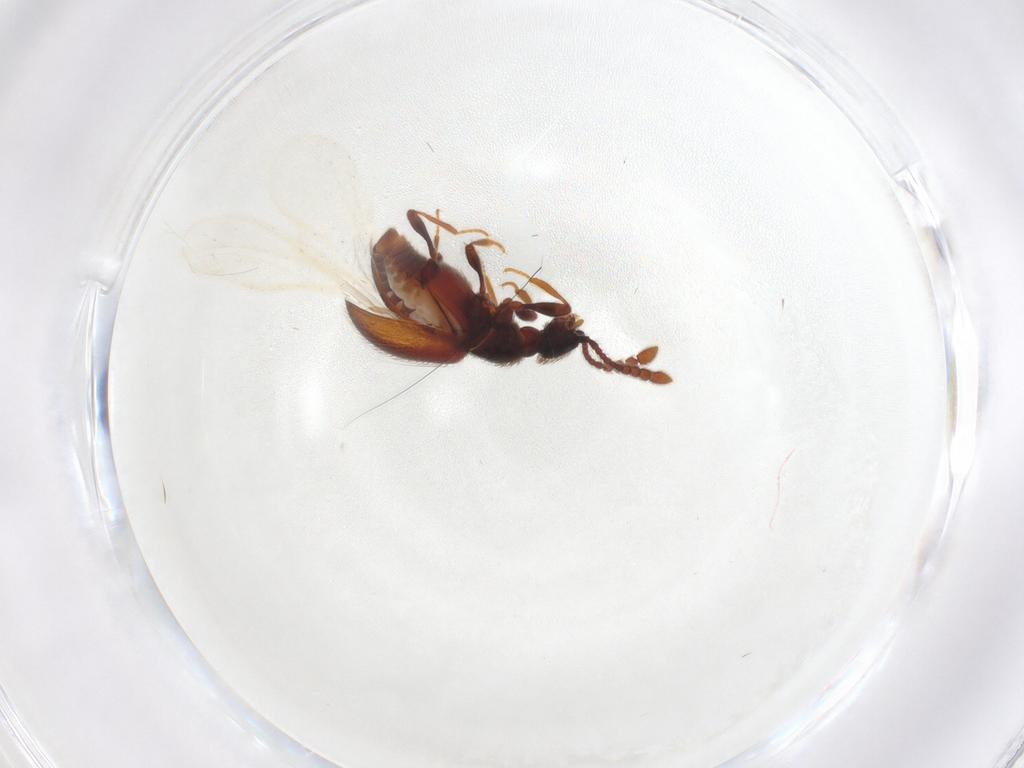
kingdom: Animalia
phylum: Arthropoda
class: Insecta
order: Coleoptera
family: Staphylinidae
